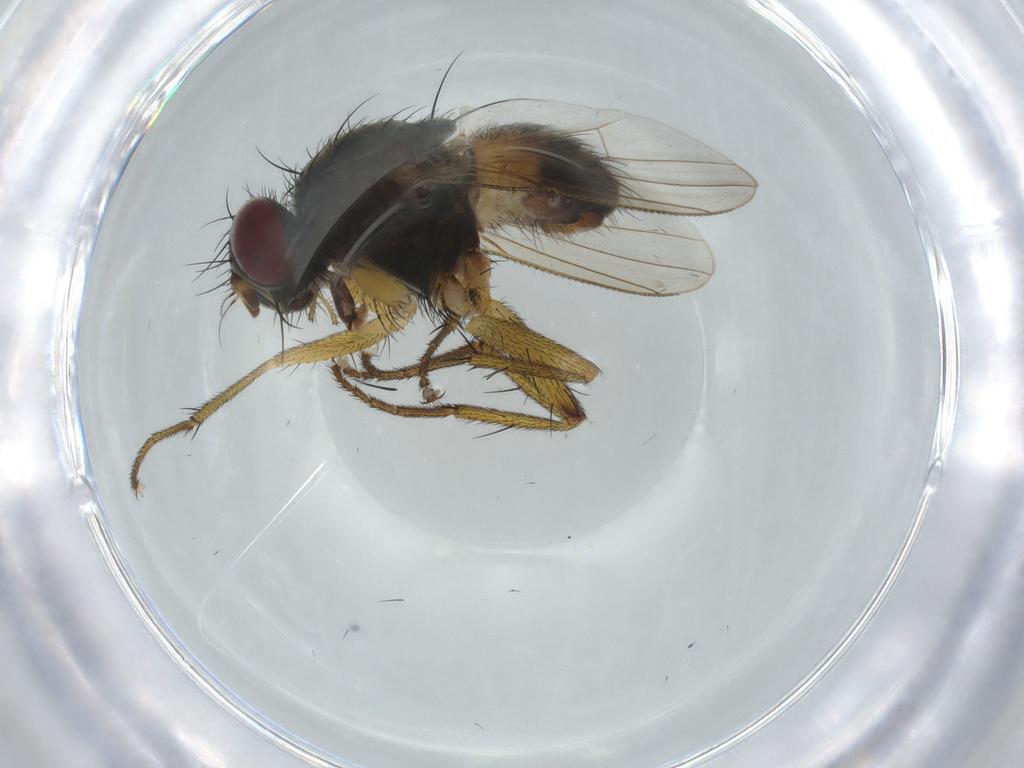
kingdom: Animalia
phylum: Arthropoda
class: Insecta
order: Diptera
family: Muscidae
